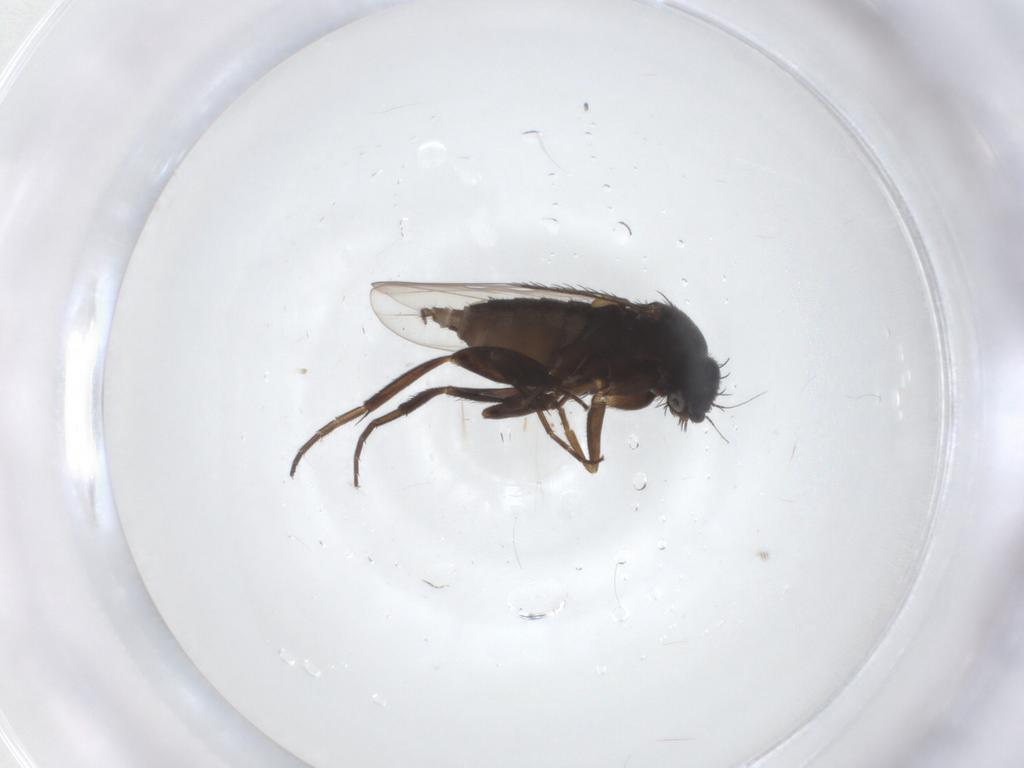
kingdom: Animalia
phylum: Arthropoda
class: Insecta
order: Diptera
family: Phoridae
